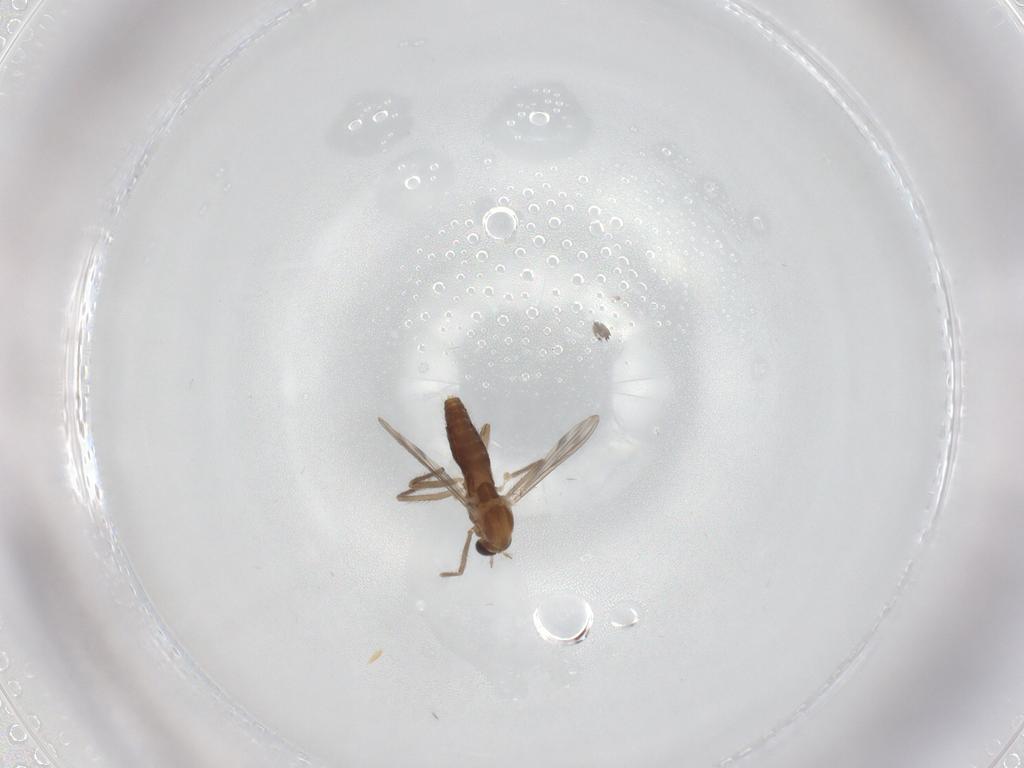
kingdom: Animalia
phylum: Arthropoda
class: Insecta
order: Diptera
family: Chironomidae
